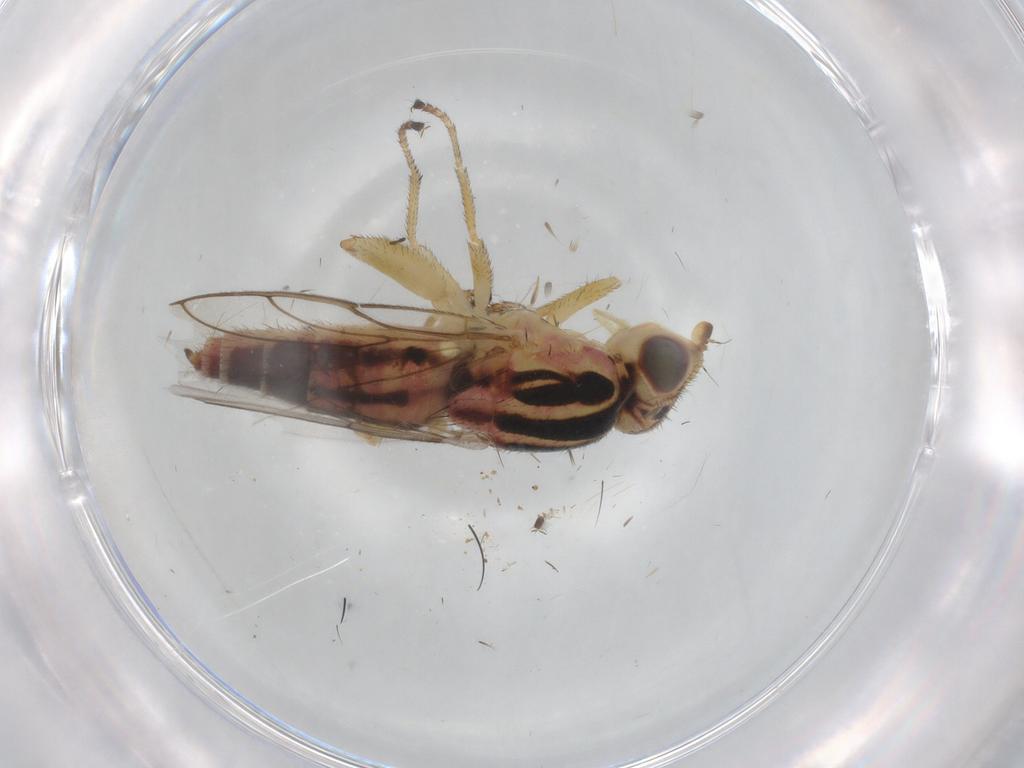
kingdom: Animalia
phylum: Arthropoda
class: Insecta
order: Diptera
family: Chloropidae
